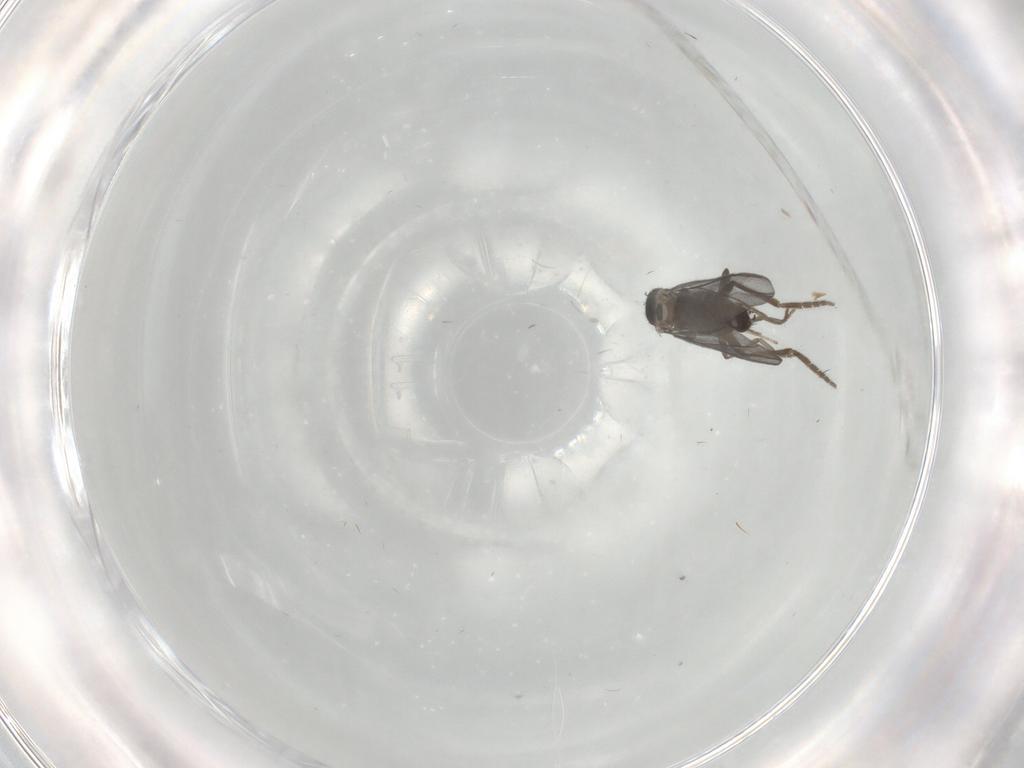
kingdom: Animalia
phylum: Arthropoda
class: Insecta
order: Diptera
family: Phoridae
